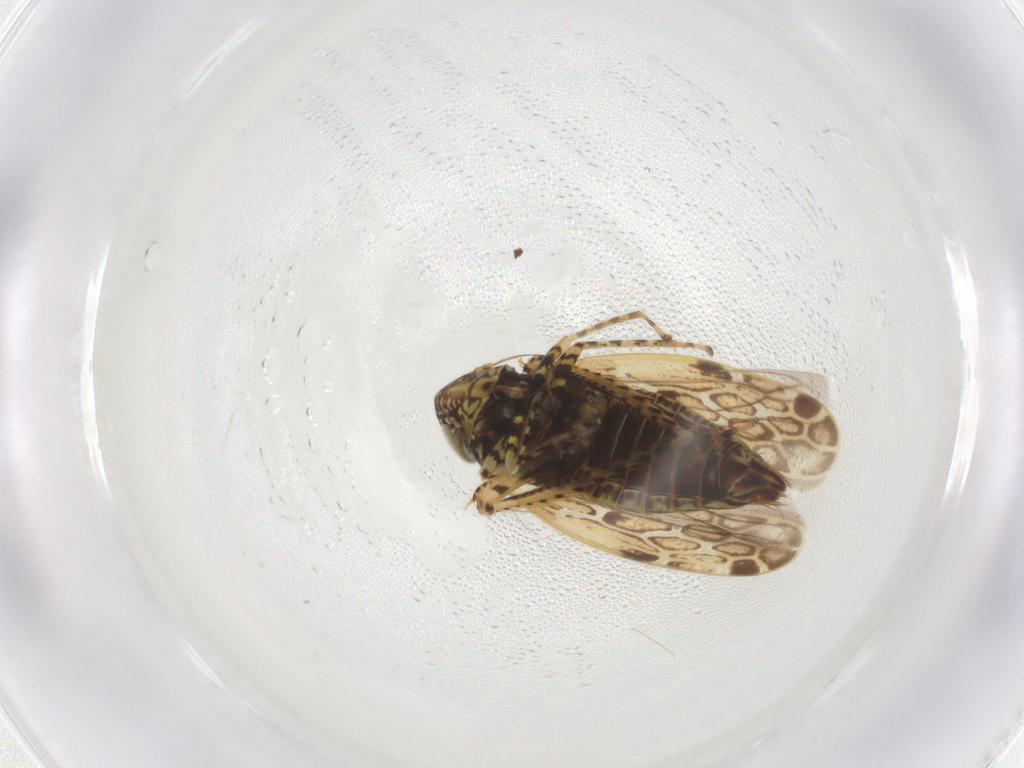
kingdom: Animalia
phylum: Arthropoda
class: Insecta
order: Hemiptera
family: Cicadellidae
